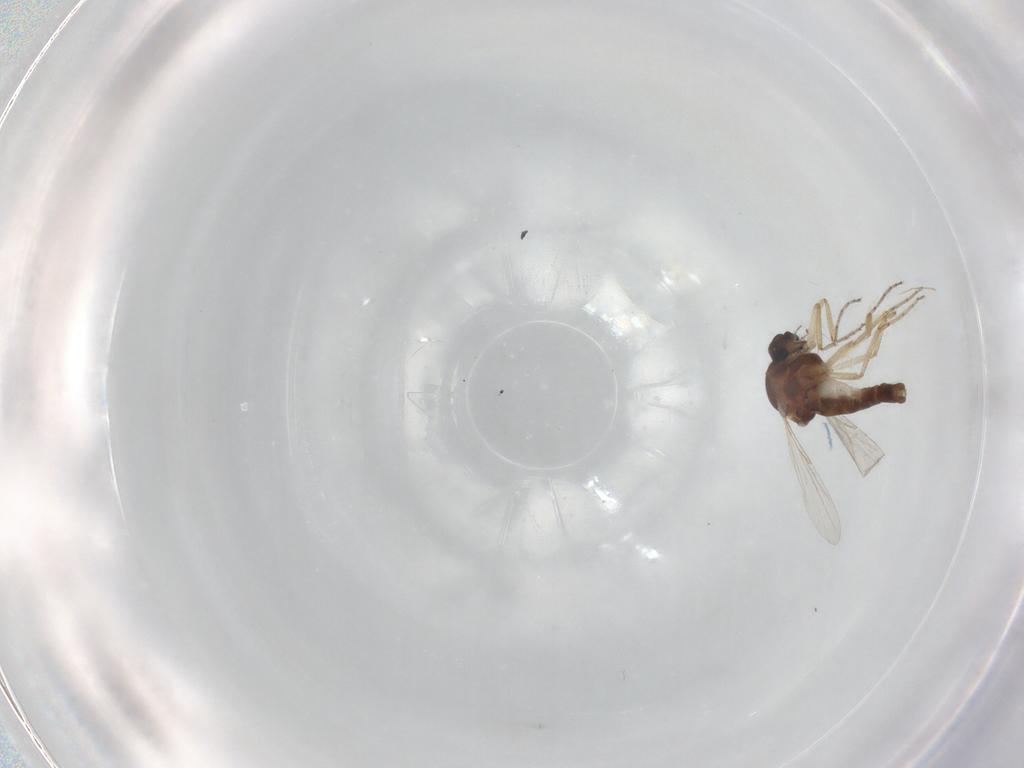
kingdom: Animalia
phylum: Arthropoda
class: Insecta
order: Diptera
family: Ceratopogonidae
